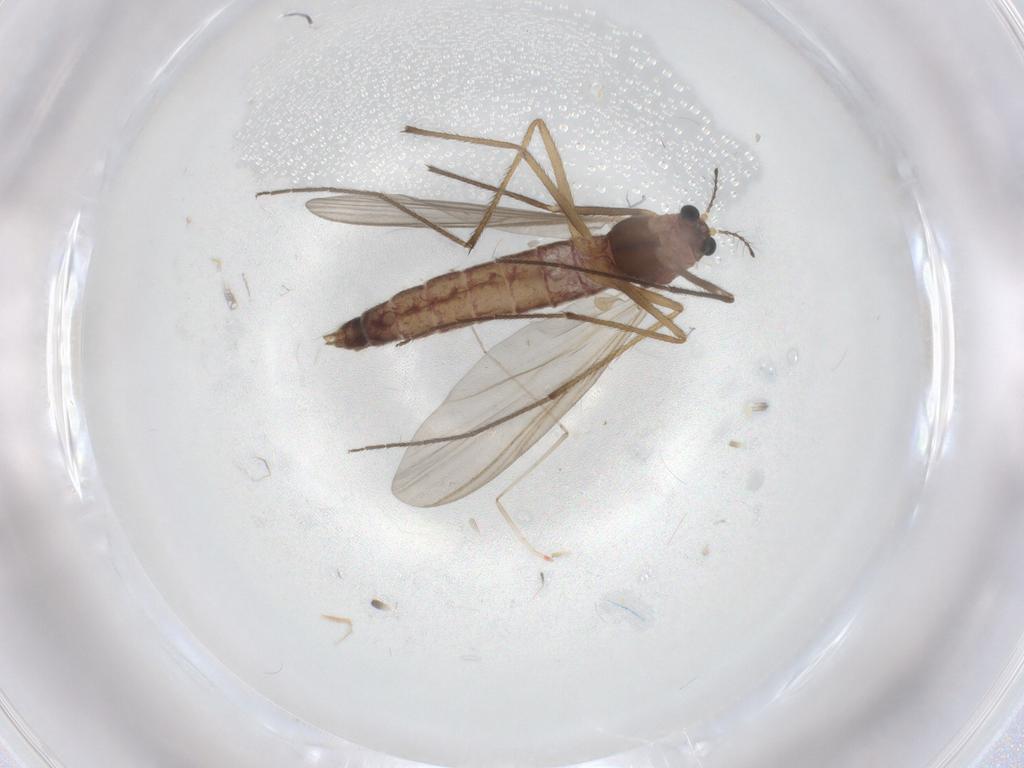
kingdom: Animalia
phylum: Arthropoda
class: Insecta
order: Diptera
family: Chironomidae
